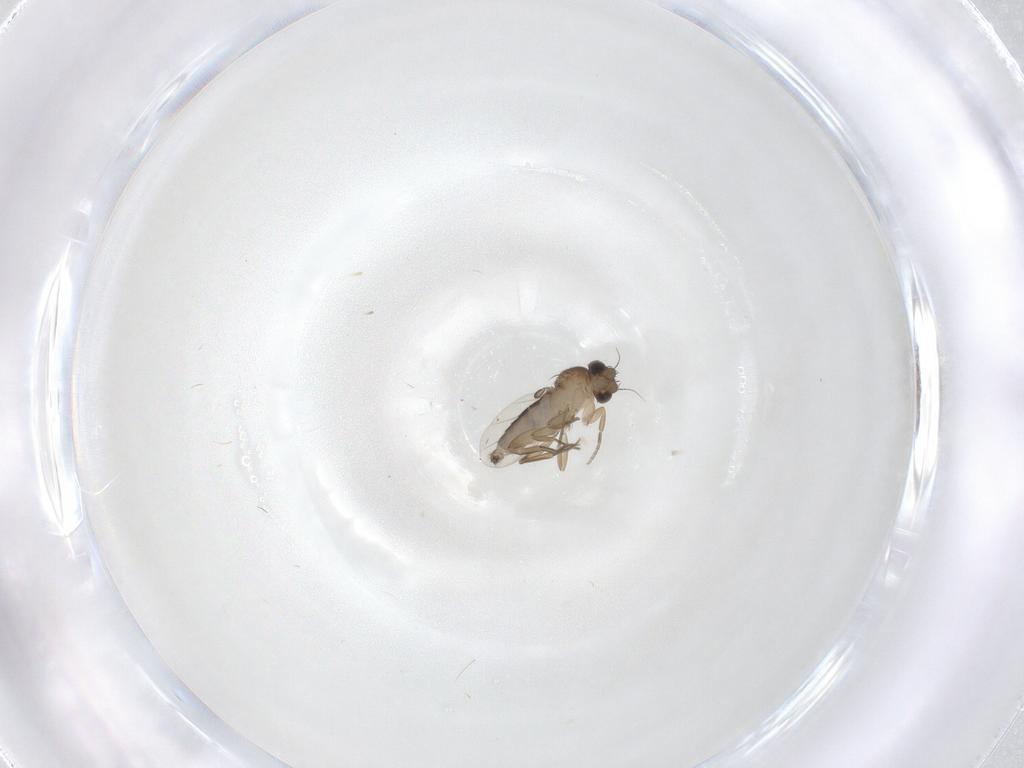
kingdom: Animalia
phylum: Arthropoda
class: Insecta
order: Diptera
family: Phoridae
